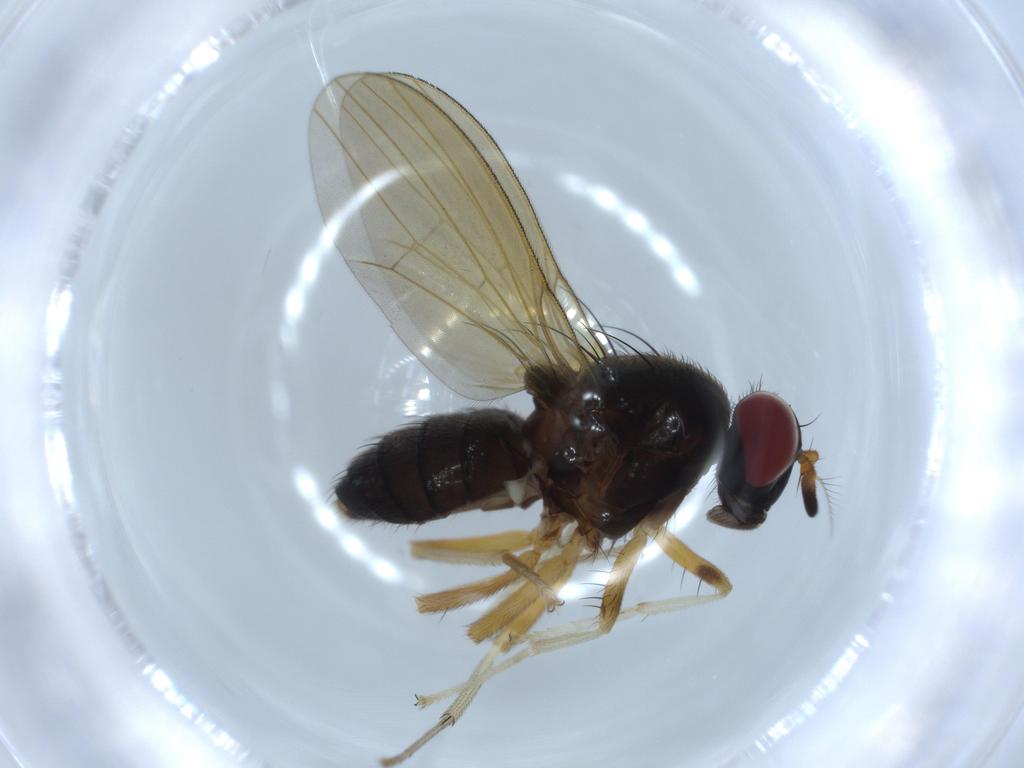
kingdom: Animalia
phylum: Arthropoda
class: Insecta
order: Diptera
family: Lauxaniidae
